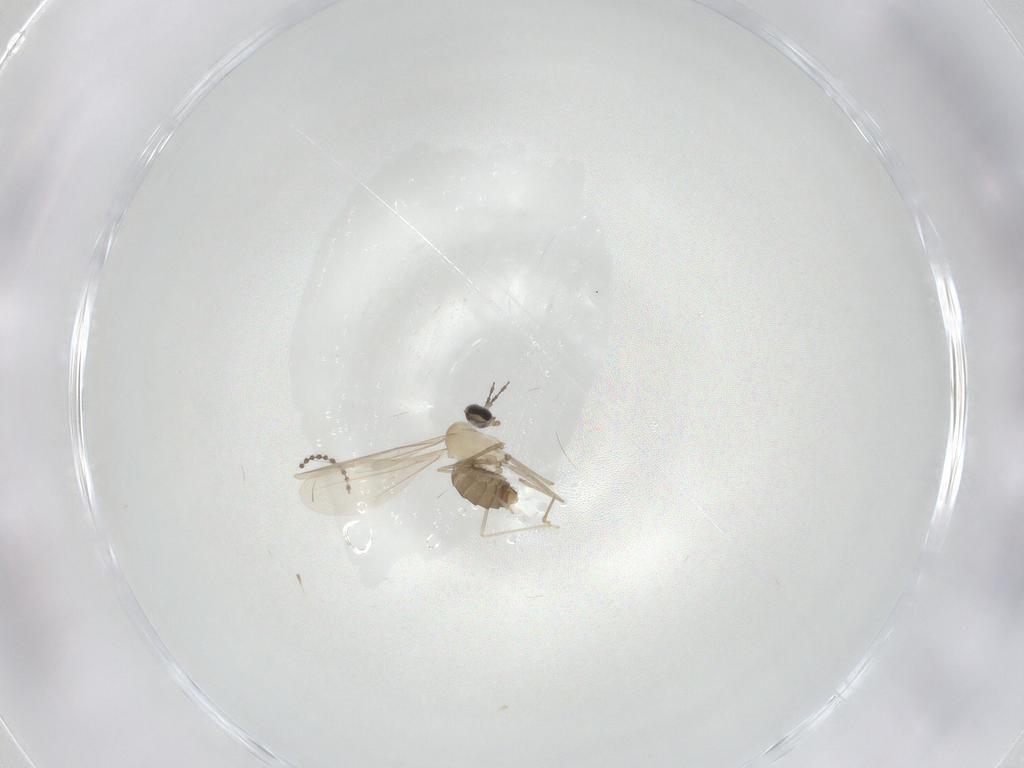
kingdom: Animalia
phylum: Arthropoda
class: Insecta
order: Diptera
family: Cecidomyiidae
